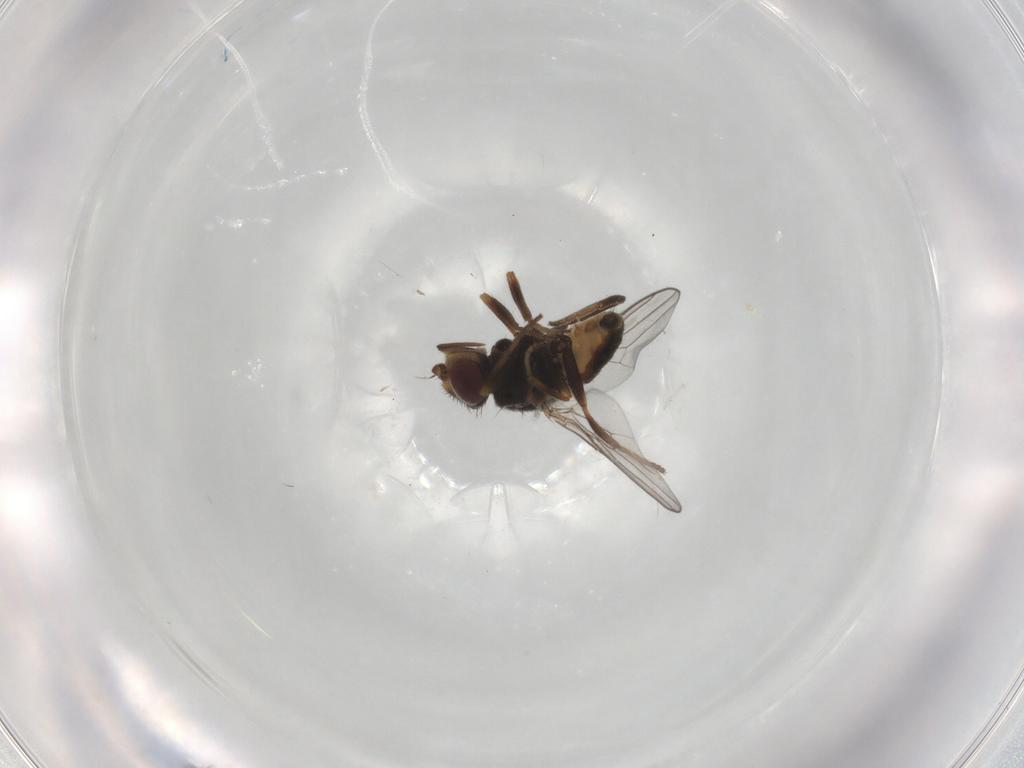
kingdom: Animalia
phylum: Arthropoda
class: Insecta
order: Diptera
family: Chloropidae
